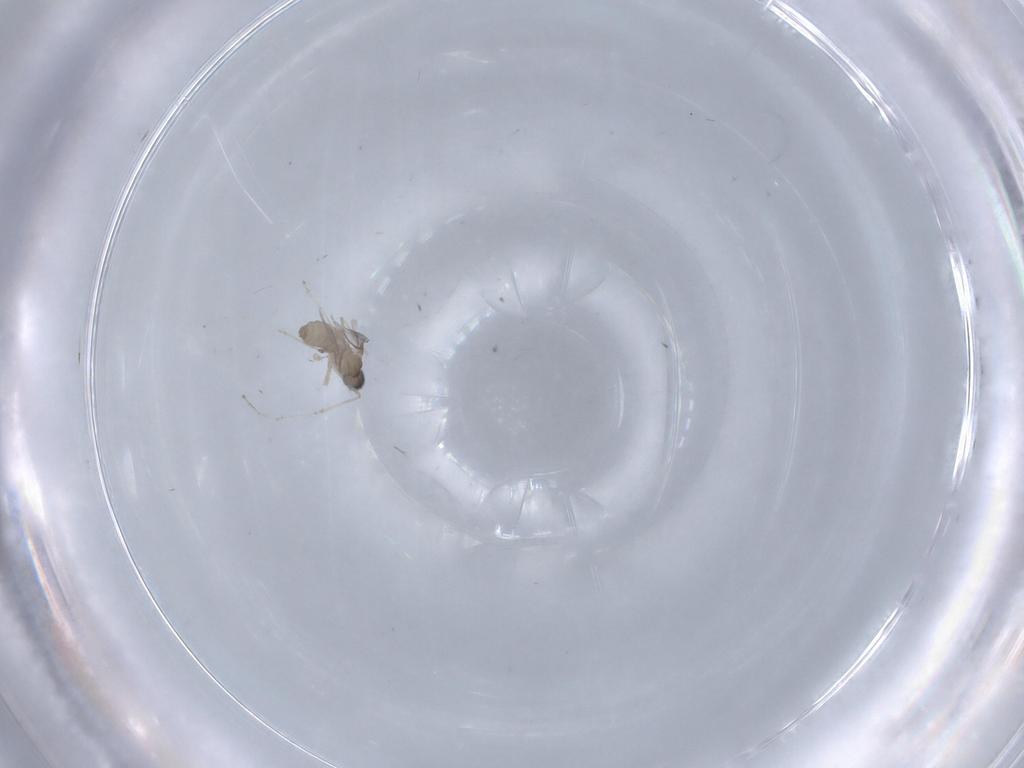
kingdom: Animalia
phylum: Arthropoda
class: Insecta
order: Diptera
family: Phoridae
